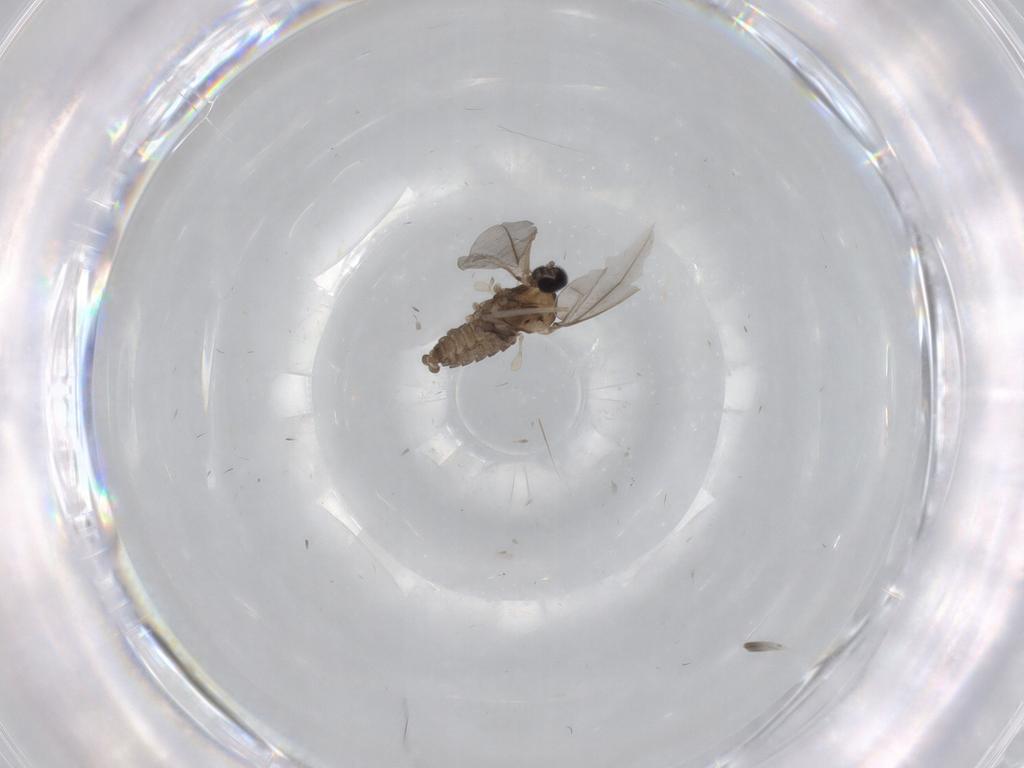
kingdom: Animalia
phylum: Arthropoda
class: Insecta
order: Diptera
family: Cecidomyiidae
